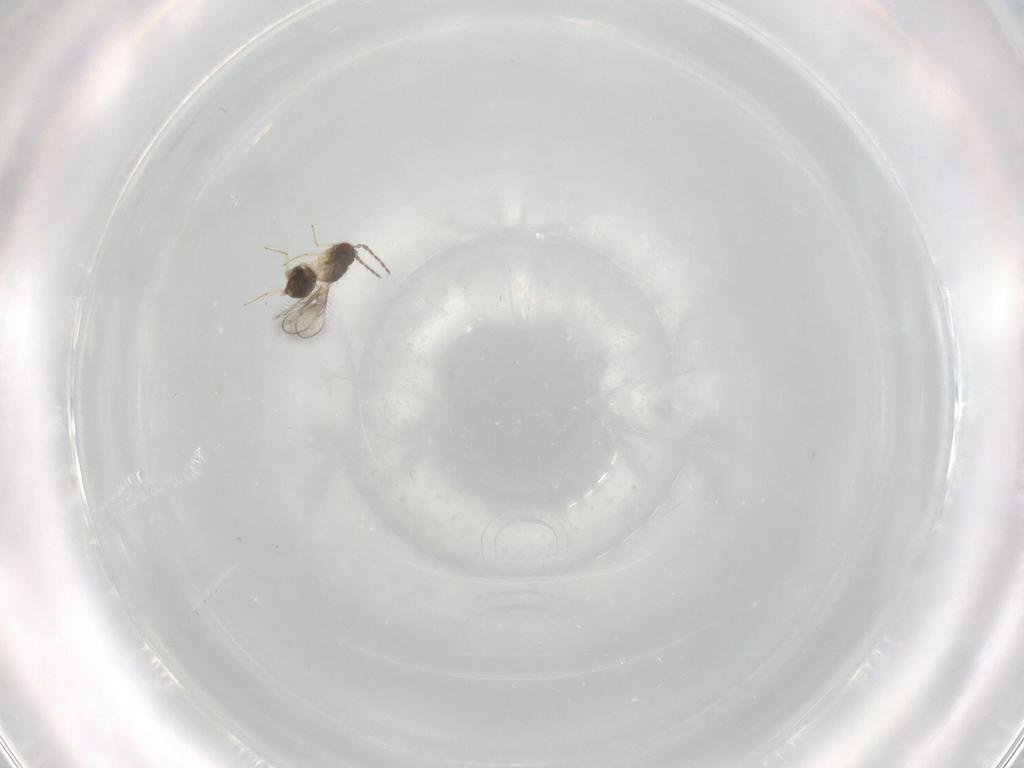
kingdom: Animalia
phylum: Arthropoda
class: Insecta
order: Hymenoptera
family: Eulophidae
